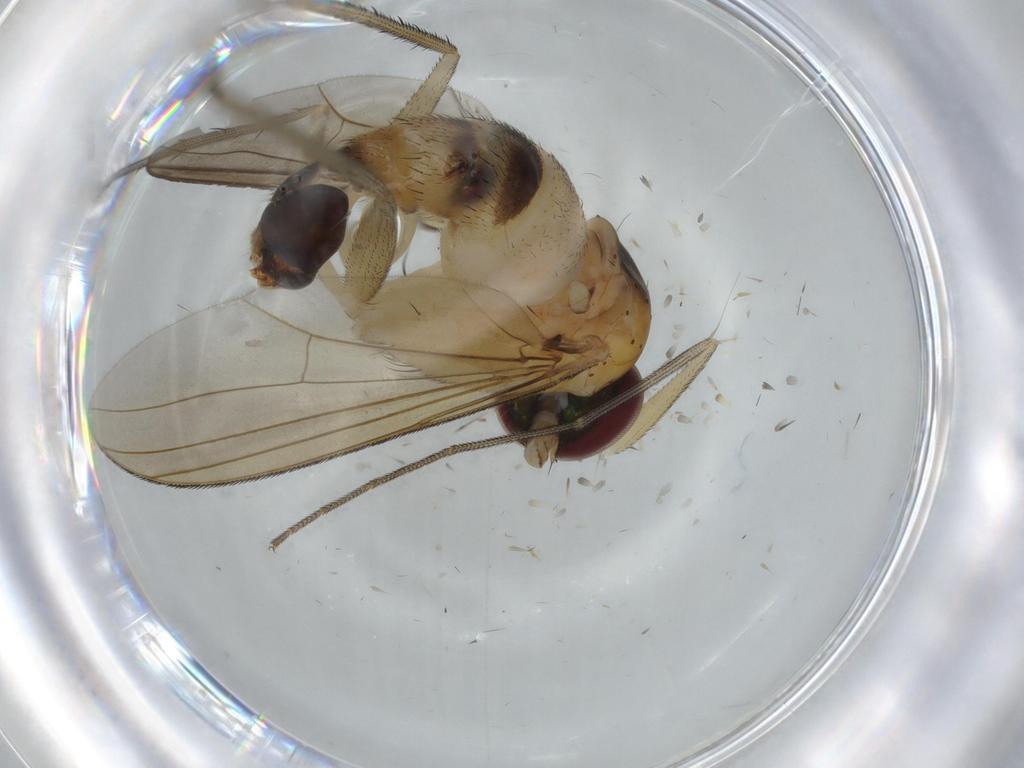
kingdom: Animalia
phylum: Arthropoda
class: Insecta
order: Diptera
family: Dolichopodidae
